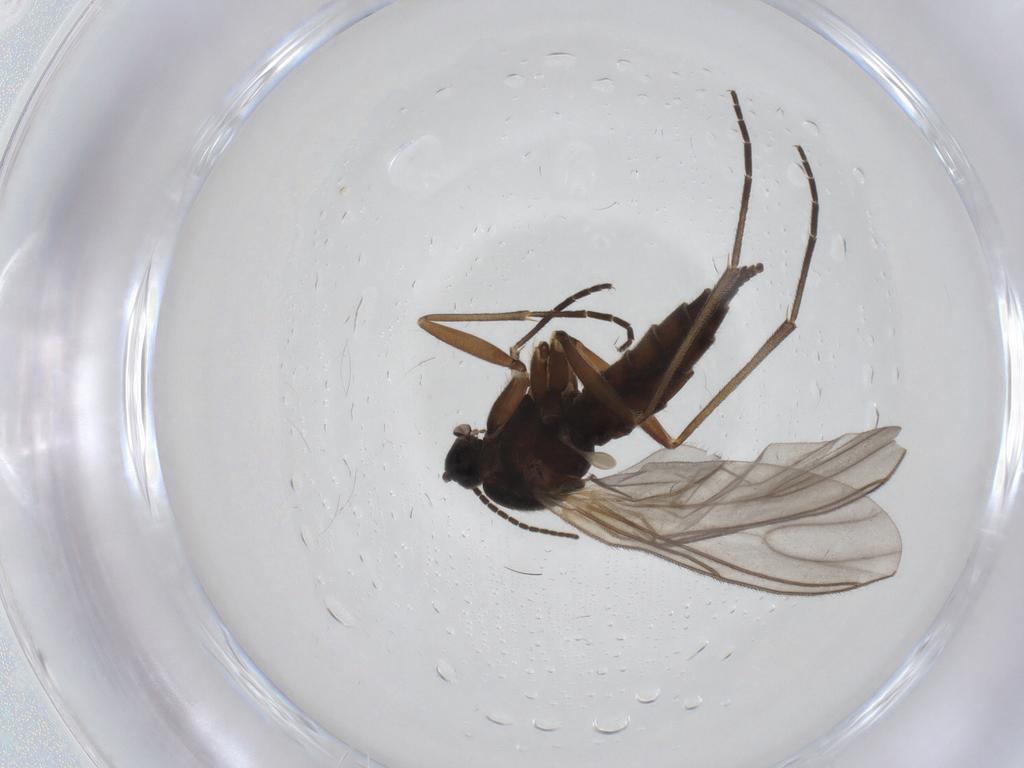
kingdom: Animalia
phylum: Arthropoda
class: Insecta
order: Diptera
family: Sciaridae
